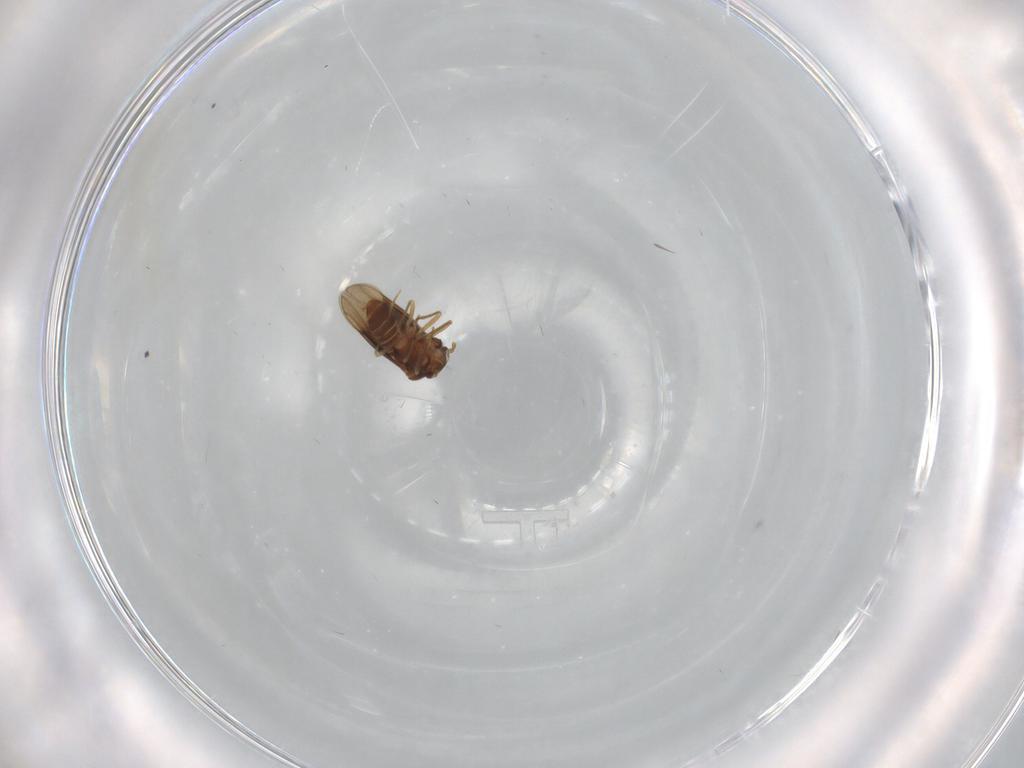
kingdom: Animalia
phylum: Arthropoda
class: Insecta
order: Hemiptera
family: Schizopteridae
